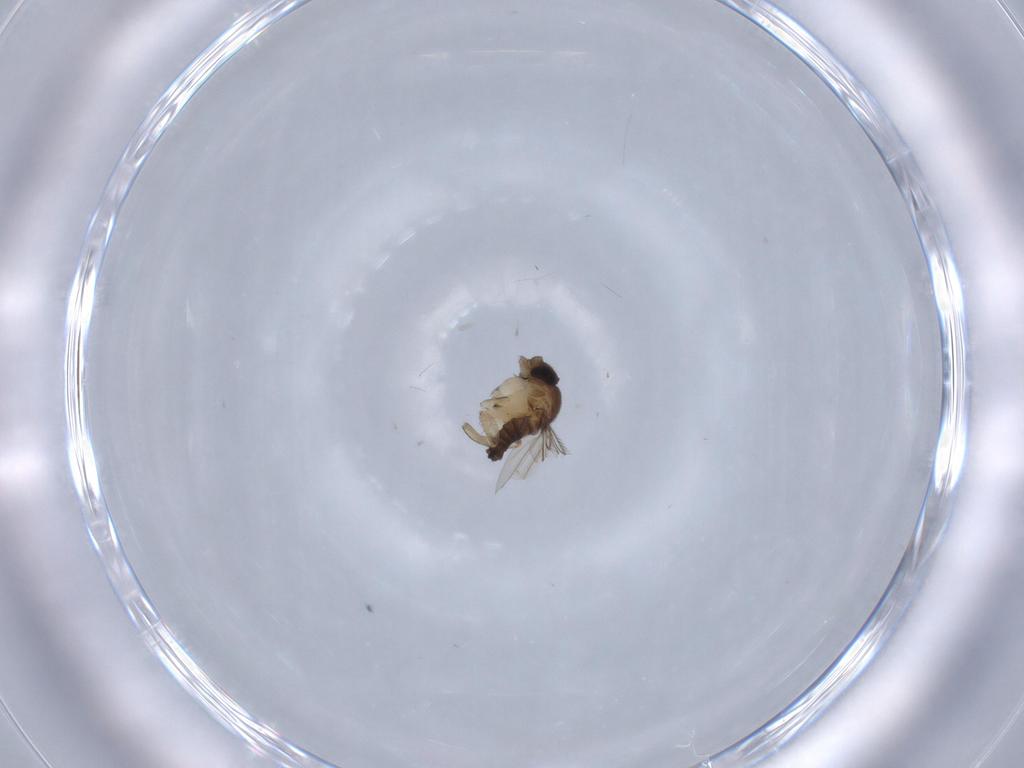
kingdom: Animalia
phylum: Arthropoda
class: Insecta
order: Diptera
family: Phoridae
